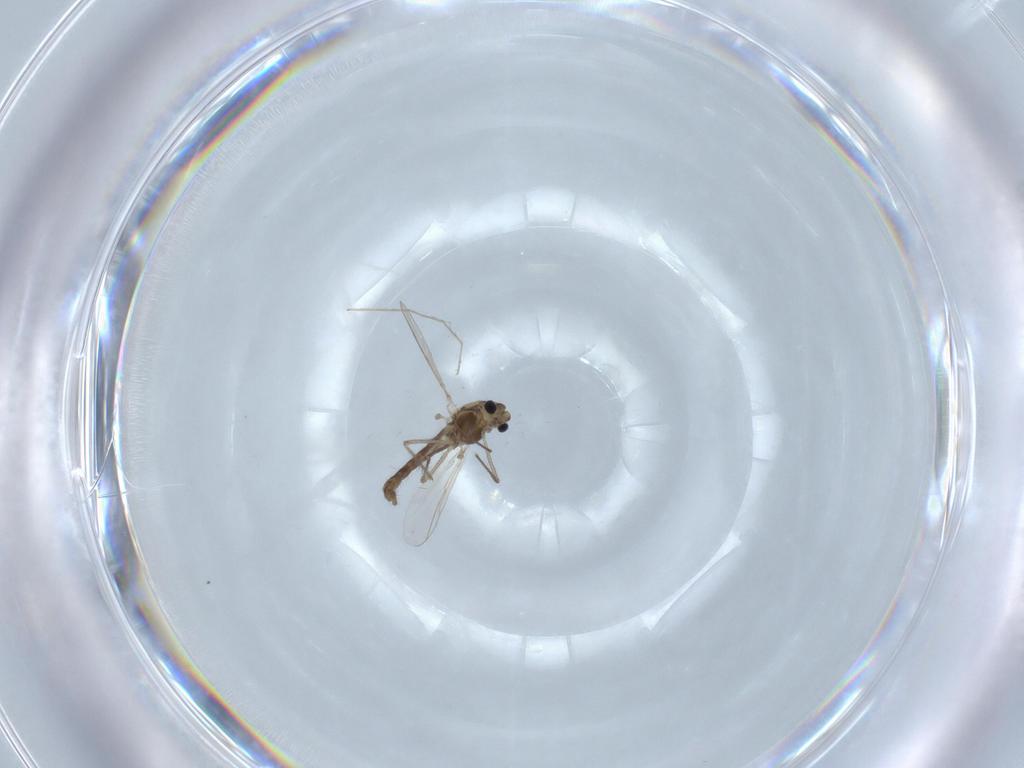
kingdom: Animalia
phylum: Arthropoda
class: Insecta
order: Diptera
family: Chironomidae
